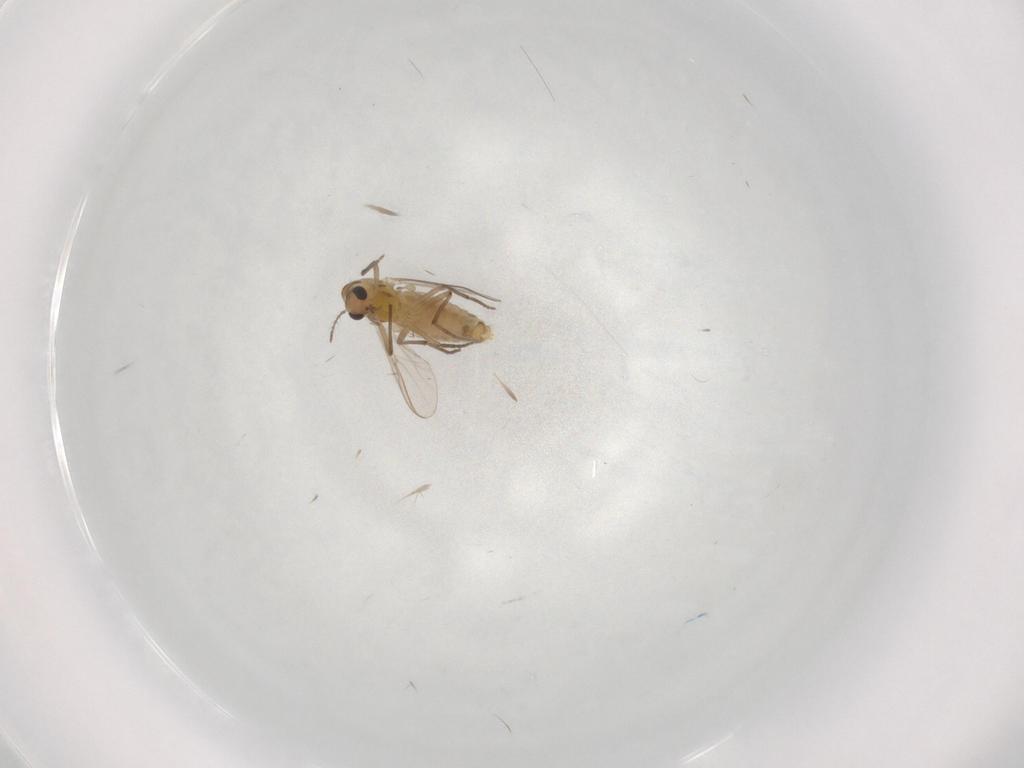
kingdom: Animalia
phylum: Arthropoda
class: Insecta
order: Diptera
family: Chironomidae
